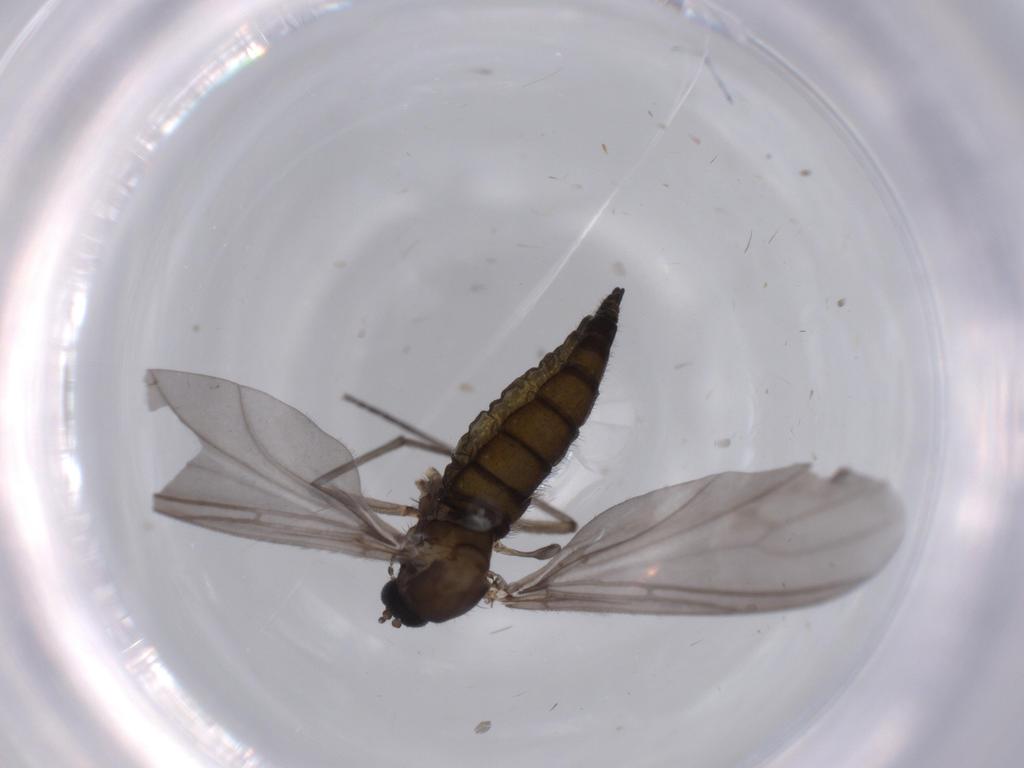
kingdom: Animalia
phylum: Arthropoda
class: Insecta
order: Diptera
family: Sciaridae
